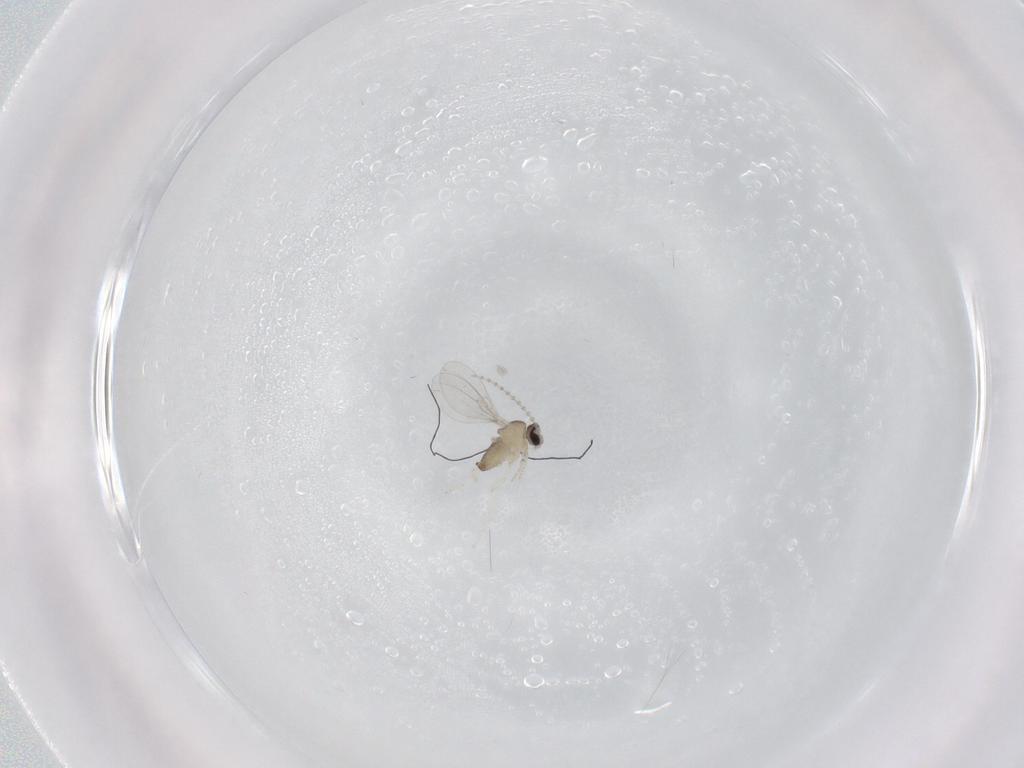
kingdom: Animalia
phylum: Arthropoda
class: Insecta
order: Diptera
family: Cecidomyiidae
